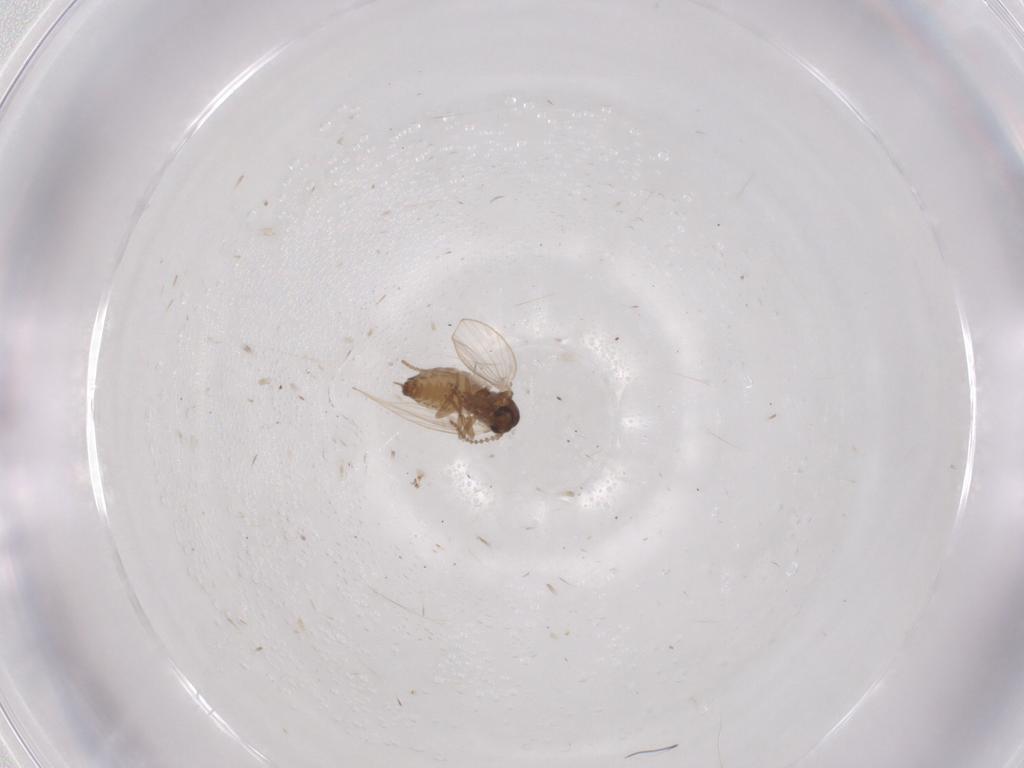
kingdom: Animalia
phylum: Arthropoda
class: Insecta
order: Diptera
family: Psychodidae
